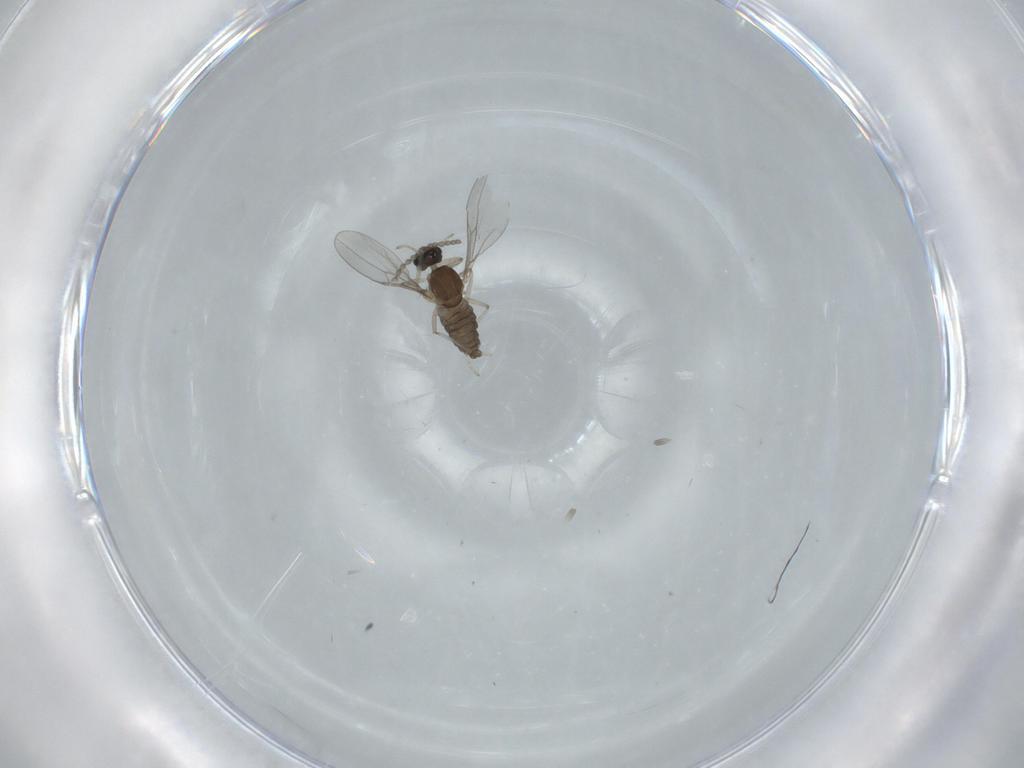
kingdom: Animalia
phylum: Arthropoda
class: Insecta
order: Diptera
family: Cecidomyiidae
